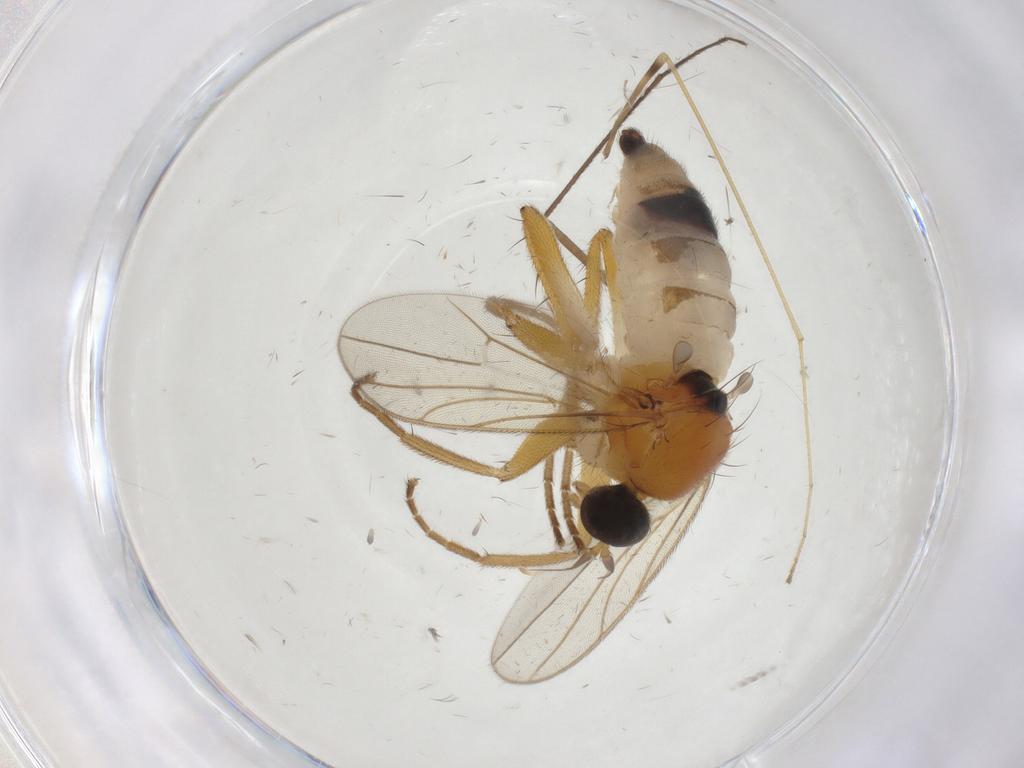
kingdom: Animalia
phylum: Arthropoda
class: Insecta
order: Diptera
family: Hybotidae
